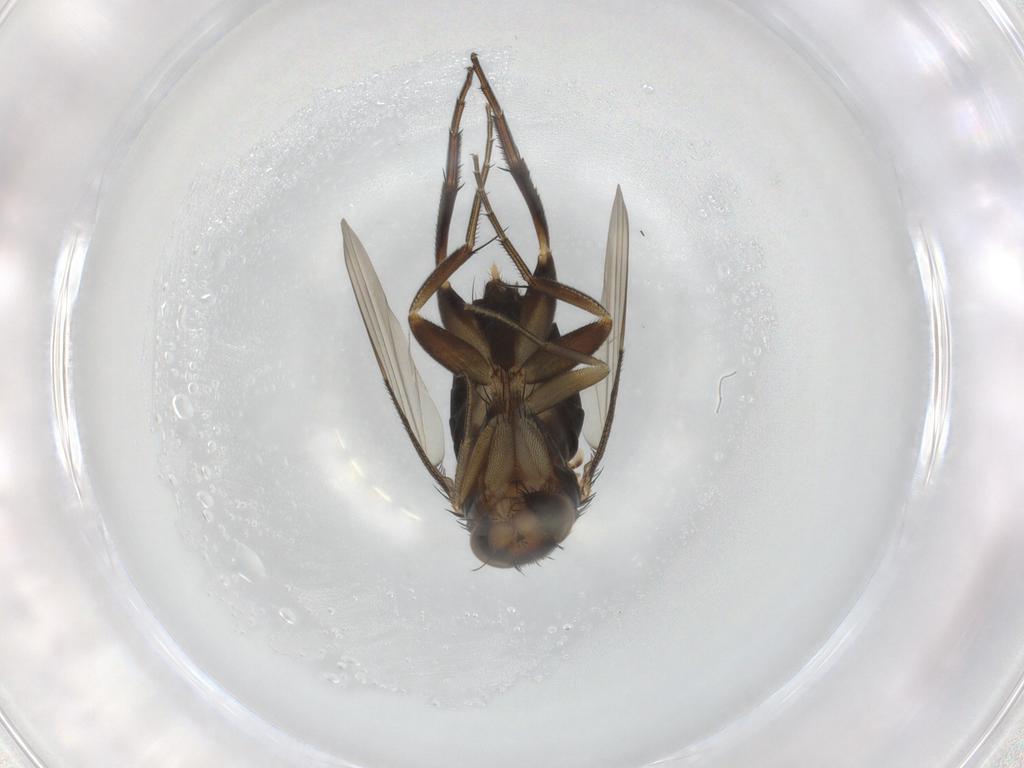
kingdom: Animalia
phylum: Arthropoda
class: Insecta
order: Diptera
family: Phoridae
